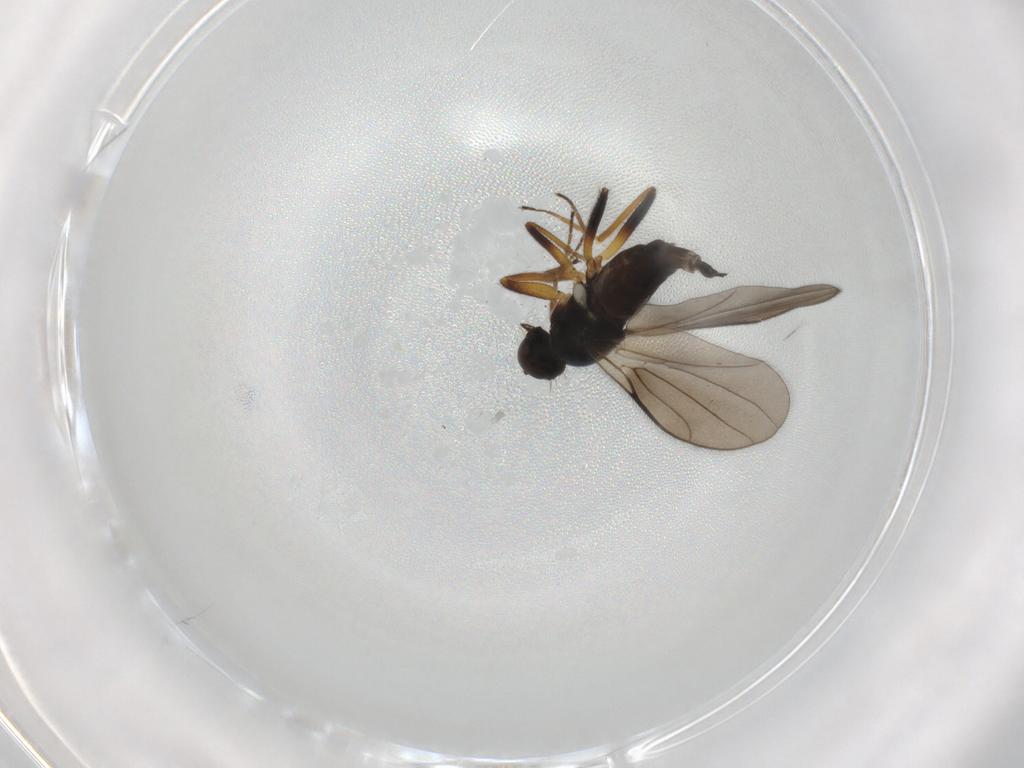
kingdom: Animalia
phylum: Arthropoda
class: Insecta
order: Diptera
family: Hybotidae
